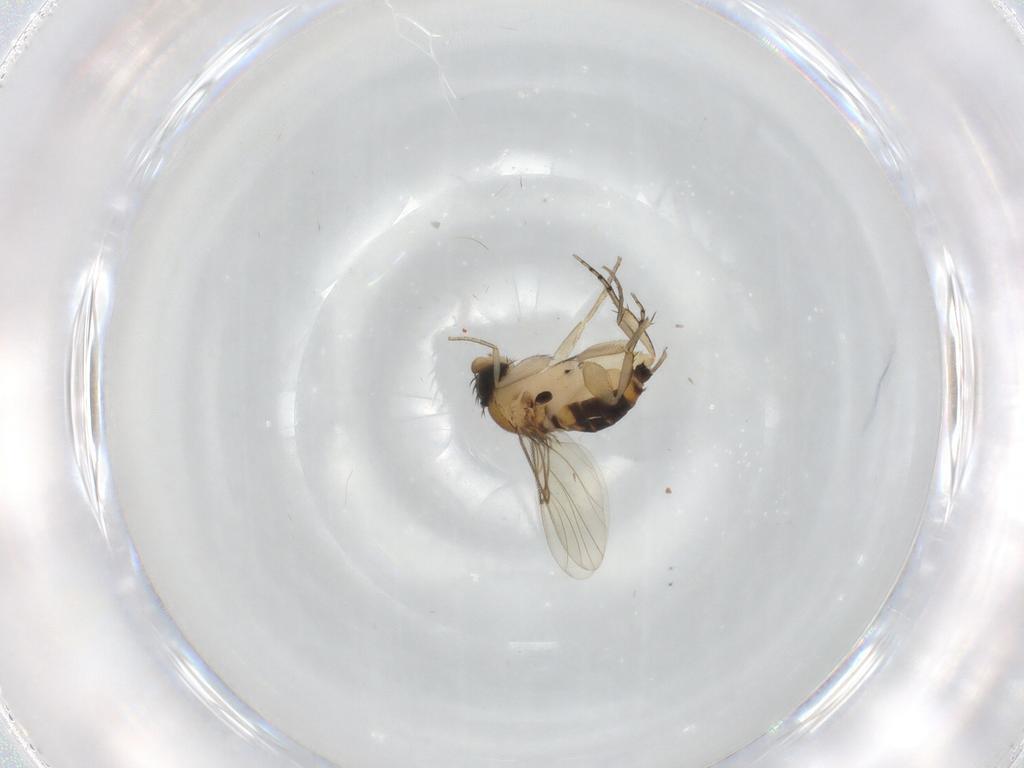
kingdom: Animalia
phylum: Arthropoda
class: Insecta
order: Diptera
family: Phoridae
